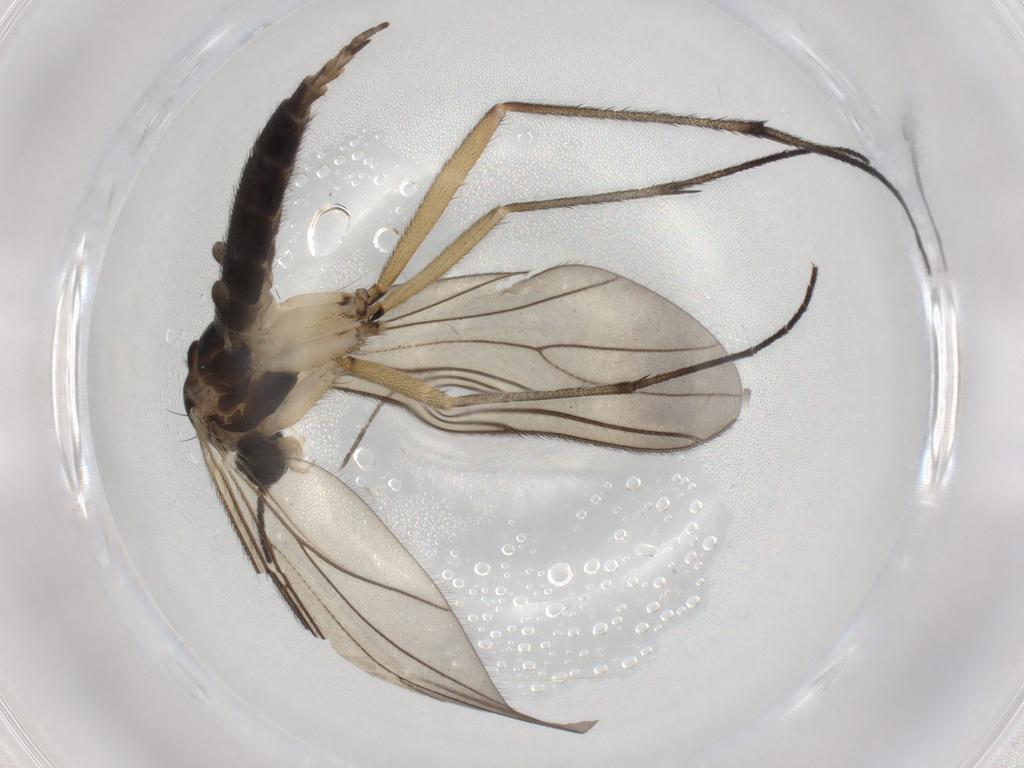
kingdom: Animalia
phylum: Arthropoda
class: Insecta
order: Diptera
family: Sciaridae
